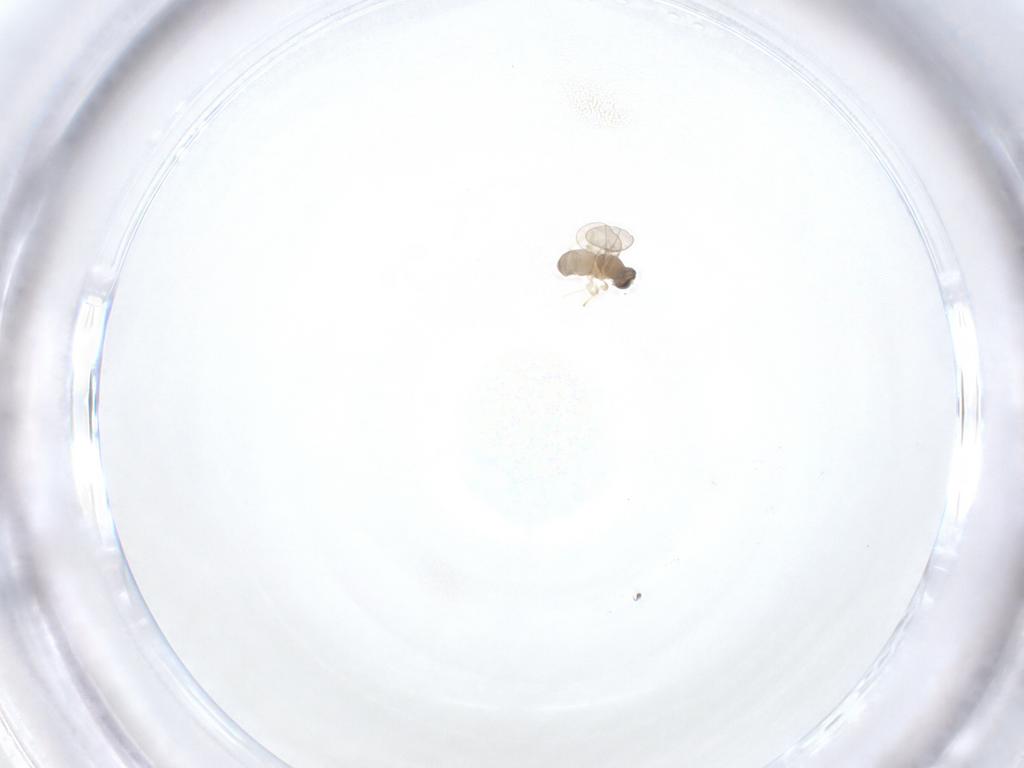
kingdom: Animalia
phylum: Arthropoda
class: Insecta
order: Diptera
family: Cecidomyiidae
